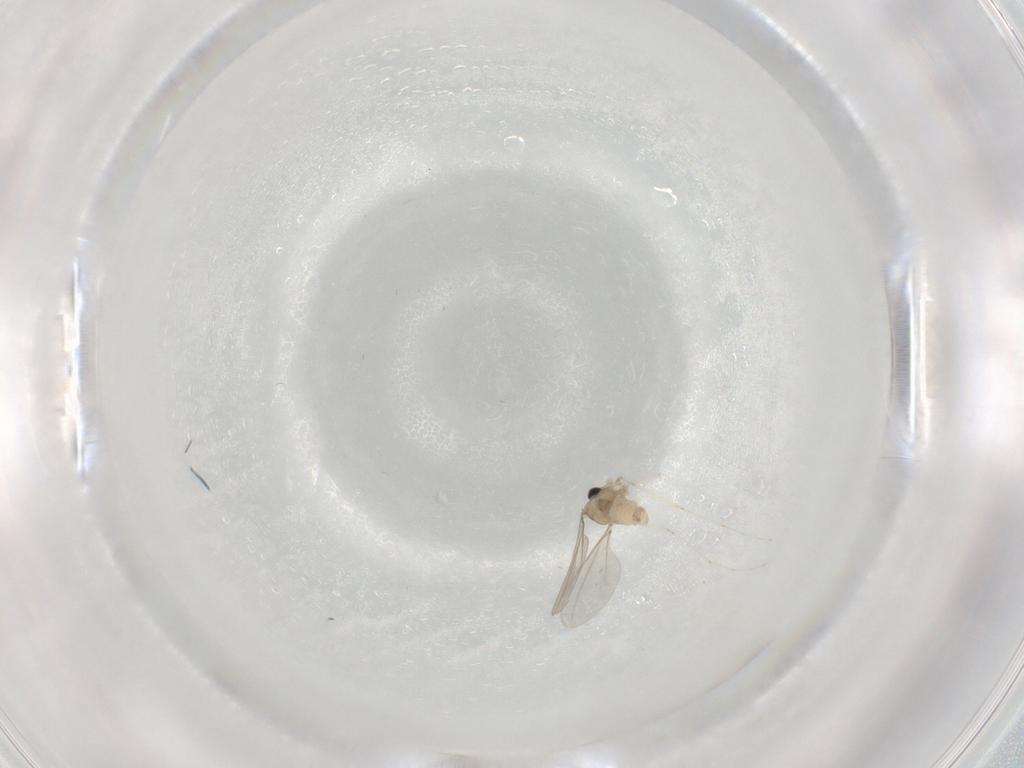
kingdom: Animalia
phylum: Arthropoda
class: Insecta
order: Diptera
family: Cecidomyiidae
